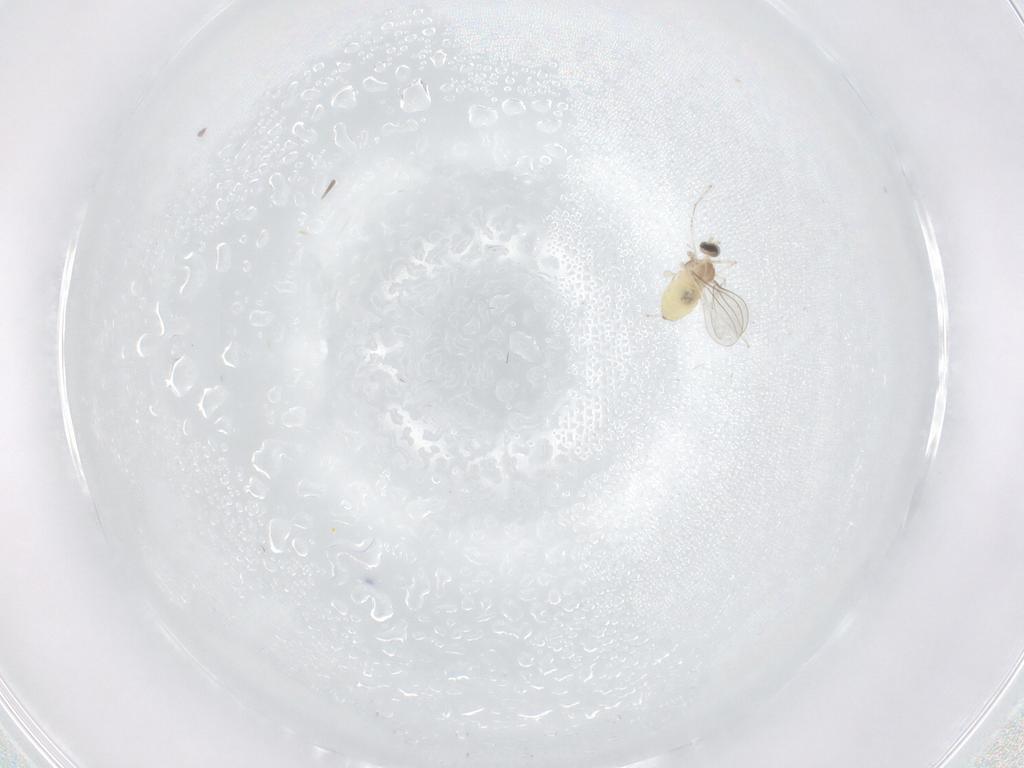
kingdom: Animalia
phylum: Arthropoda
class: Insecta
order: Diptera
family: Cecidomyiidae
